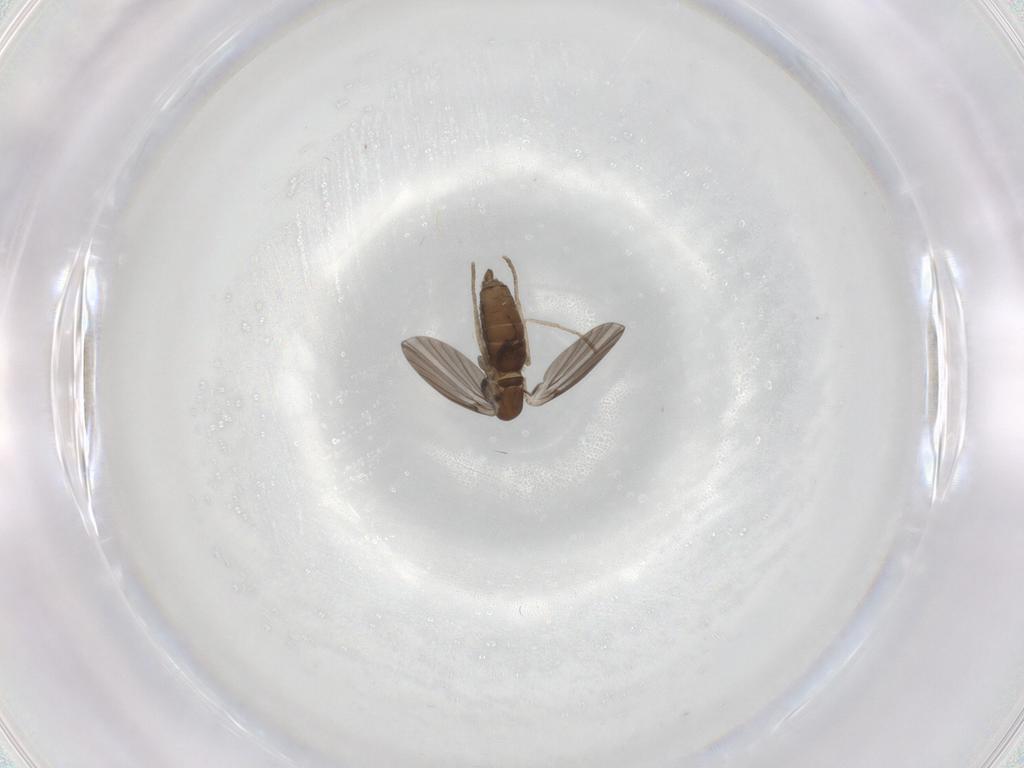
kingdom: Animalia
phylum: Arthropoda
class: Insecta
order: Diptera
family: Cecidomyiidae
